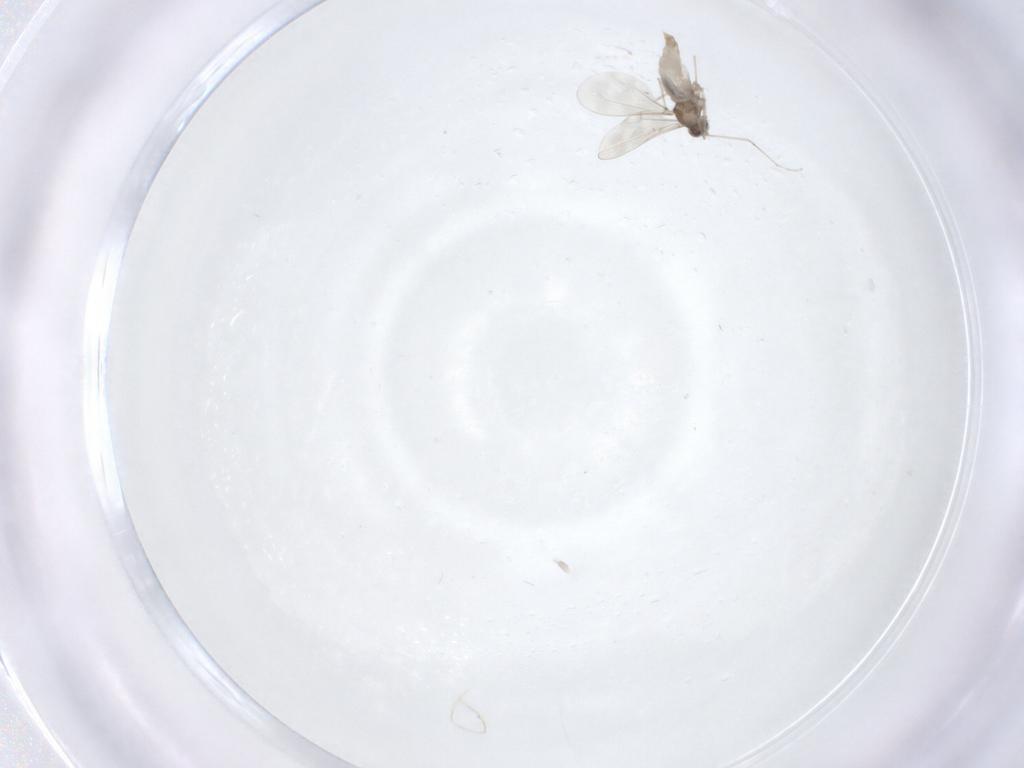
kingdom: Animalia
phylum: Arthropoda
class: Insecta
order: Diptera
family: Cecidomyiidae
